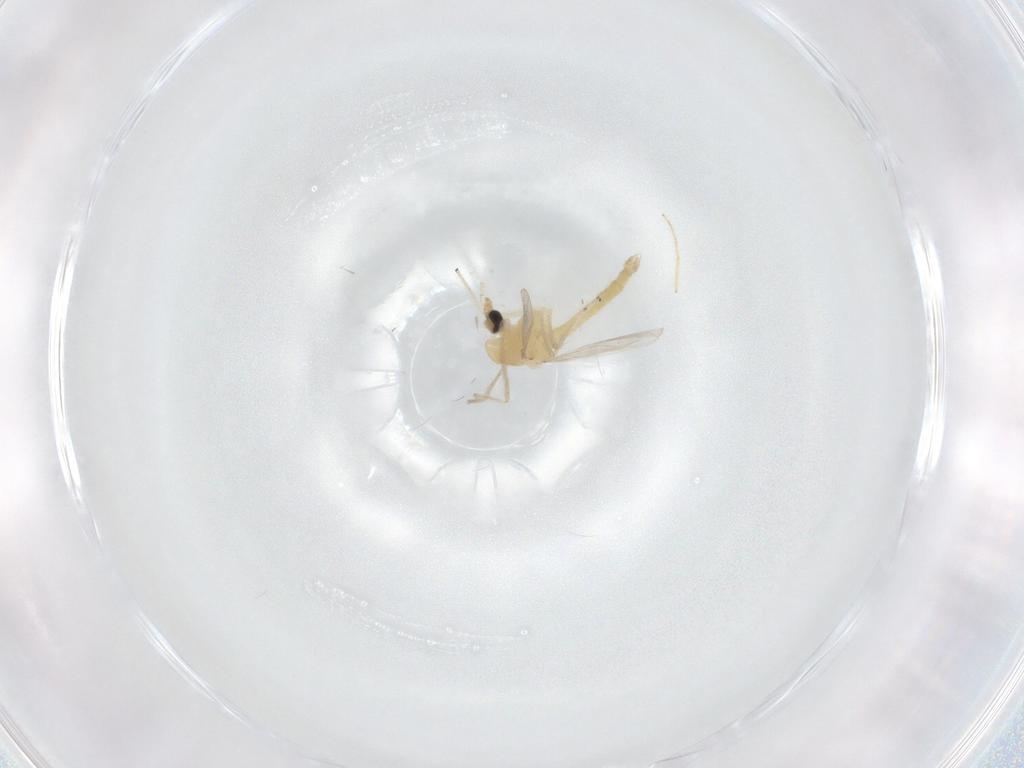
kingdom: Animalia
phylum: Arthropoda
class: Insecta
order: Diptera
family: Chironomidae
